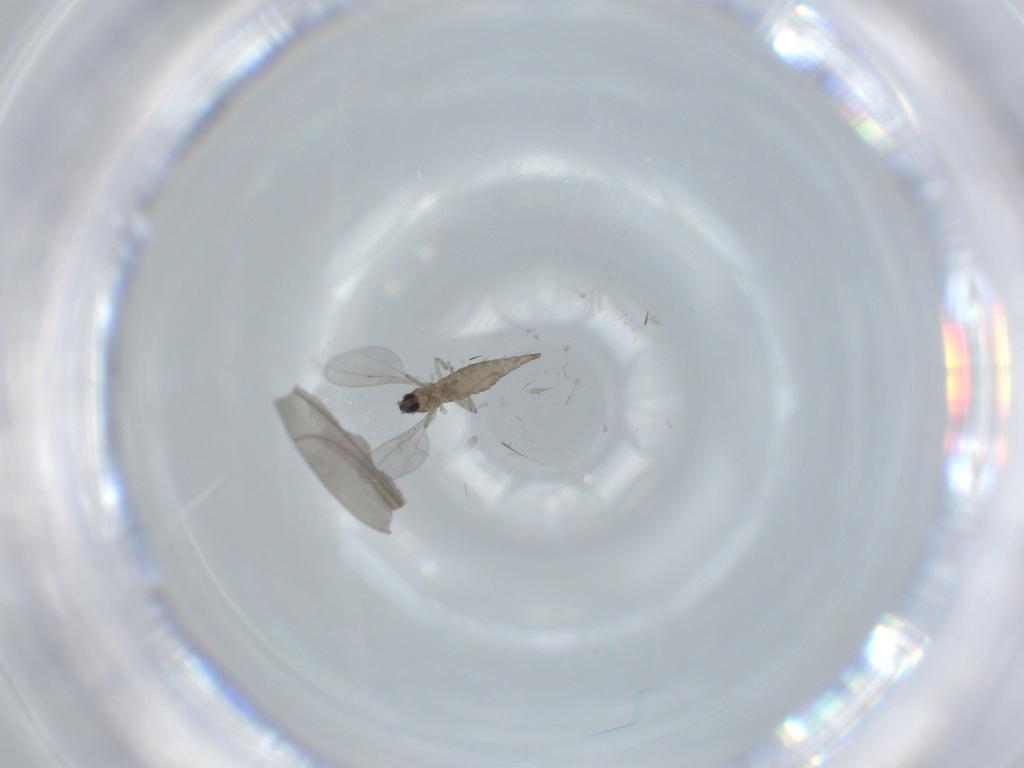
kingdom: Animalia
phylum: Arthropoda
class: Insecta
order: Diptera
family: Cecidomyiidae
